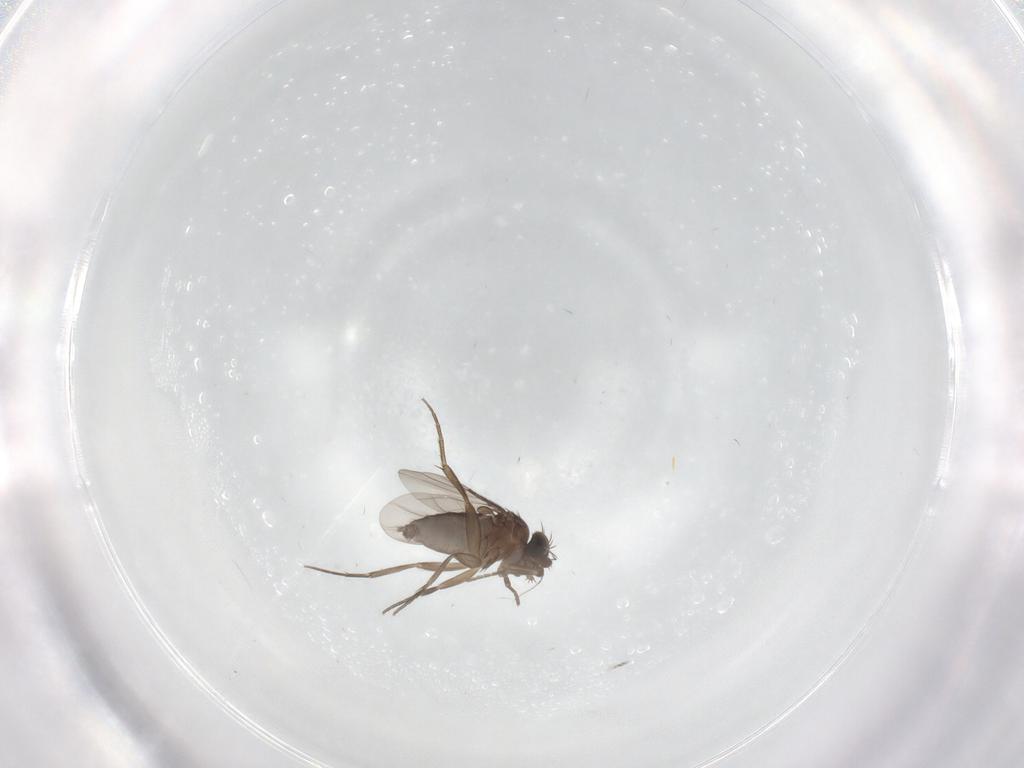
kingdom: Animalia
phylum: Arthropoda
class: Insecta
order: Diptera
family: Phoridae
